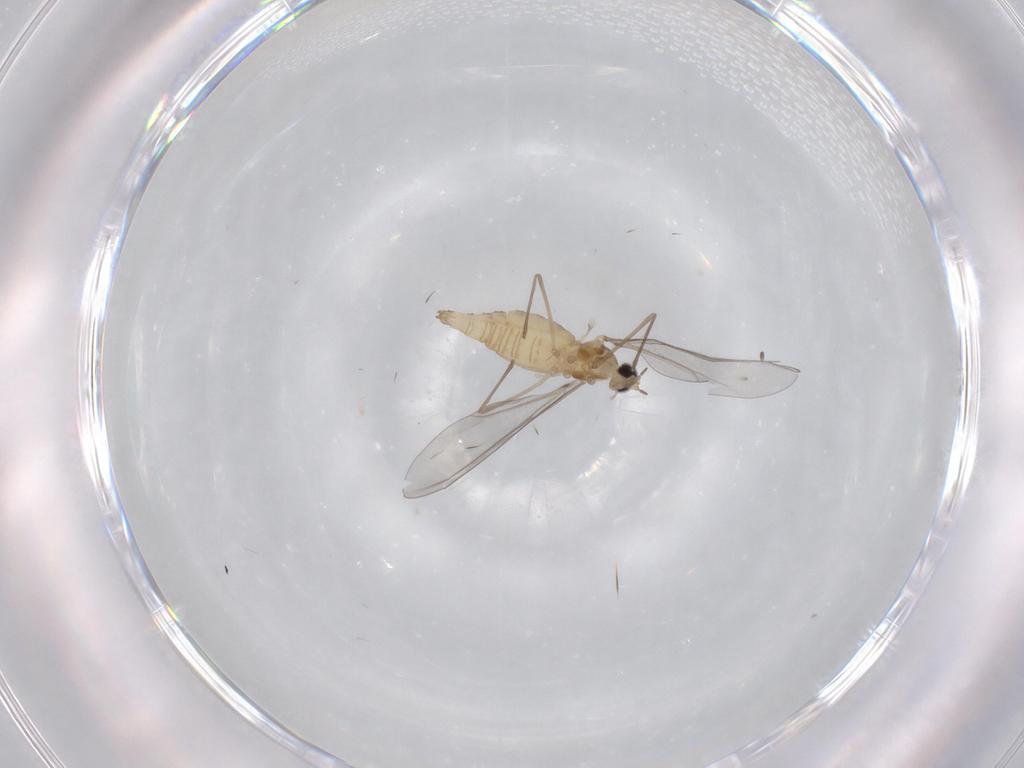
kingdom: Animalia
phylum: Arthropoda
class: Insecta
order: Diptera
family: Cecidomyiidae
